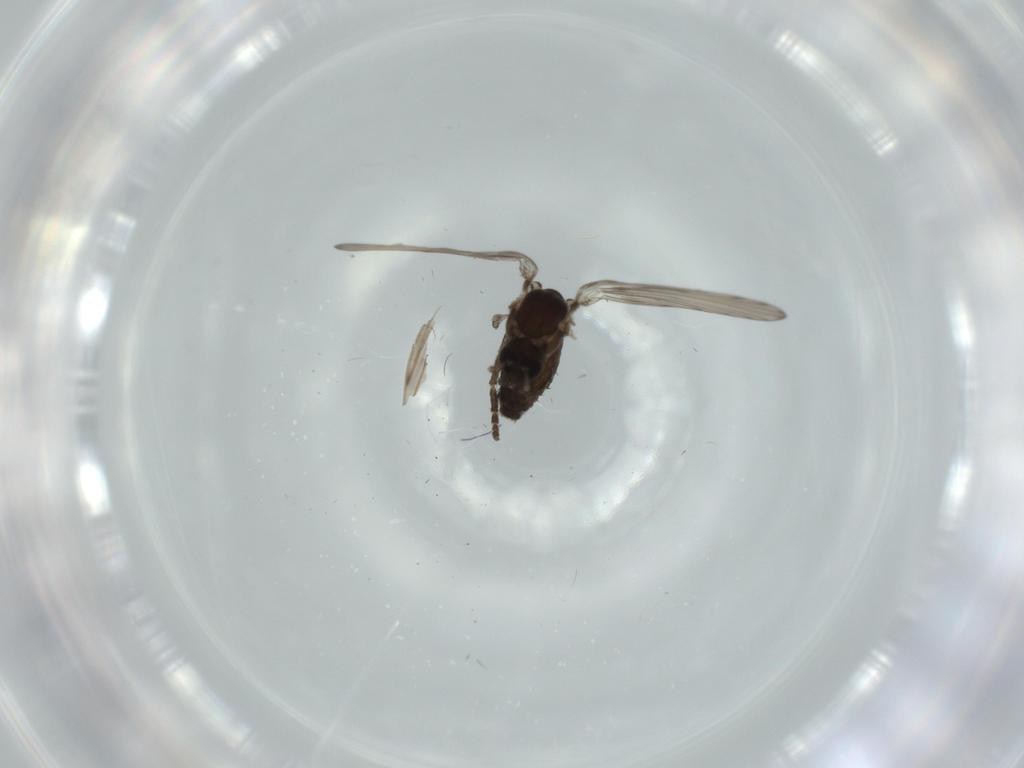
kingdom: Animalia
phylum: Arthropoda
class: Insecta
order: Diptera
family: Psychodidae
